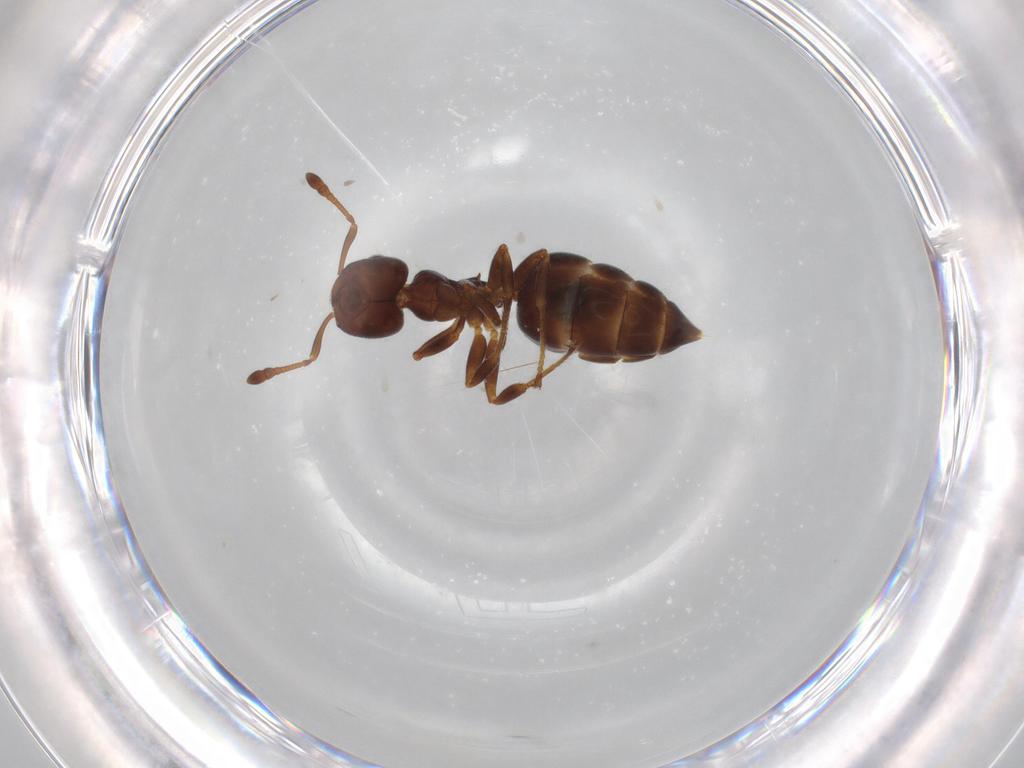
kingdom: Animalia
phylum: Arthropoda
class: Insecta
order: Hymenoptera
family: Formicidae
